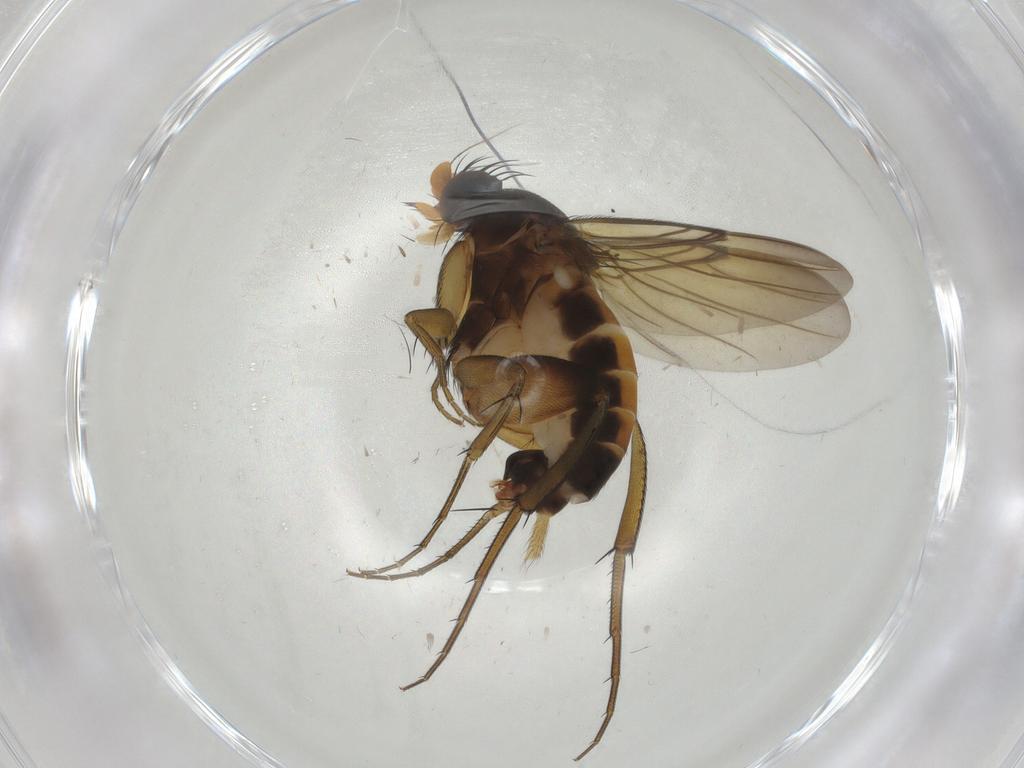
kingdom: Animalia
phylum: Arthropoda
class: Insecta
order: Diptera
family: Phoridae
